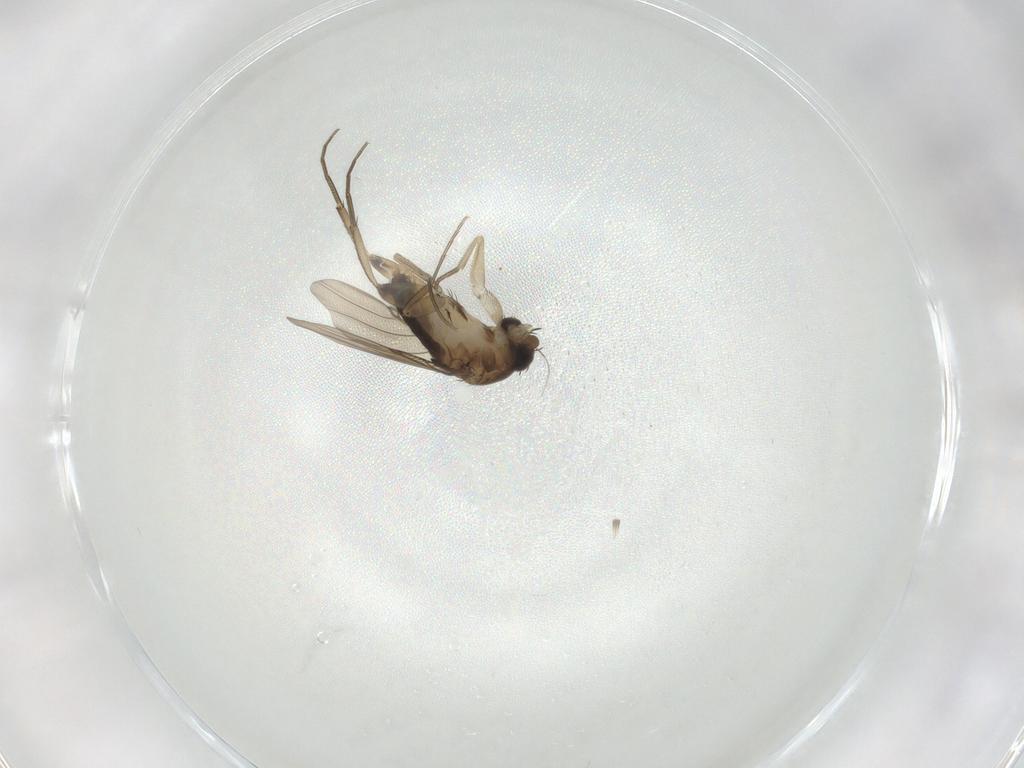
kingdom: Animalia
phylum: Arthropoda
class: Insecta
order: Diptera
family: Phoridae
